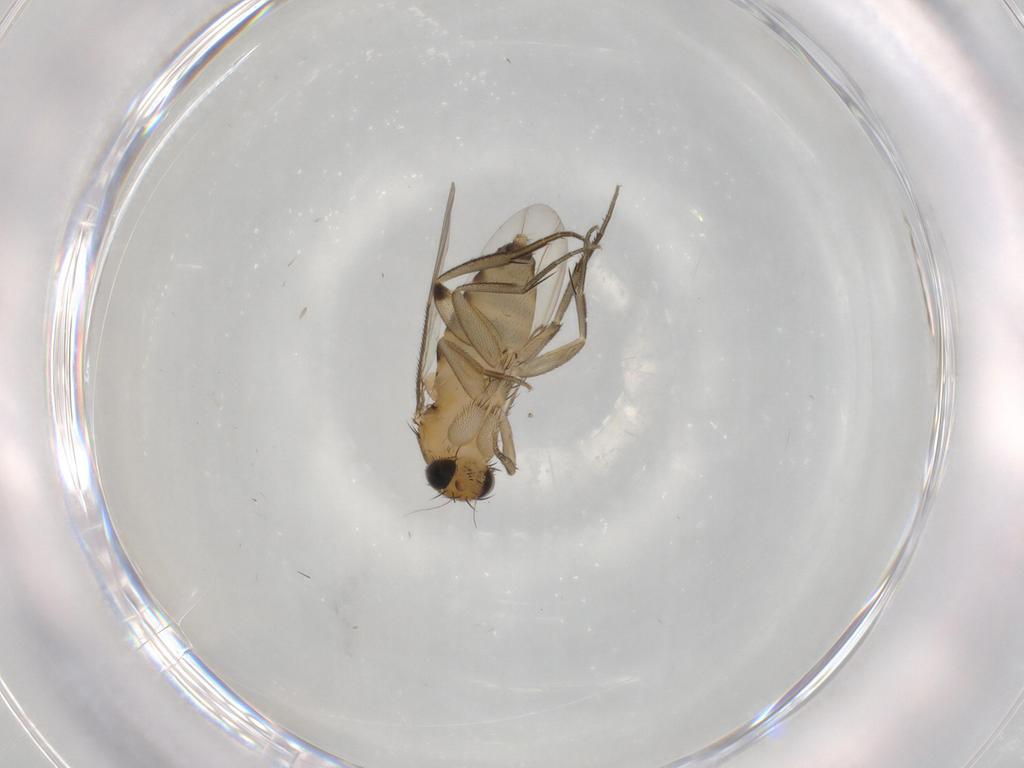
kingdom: Animalia
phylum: Arthropoda
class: Insecta
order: Diptera
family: Phoridae
